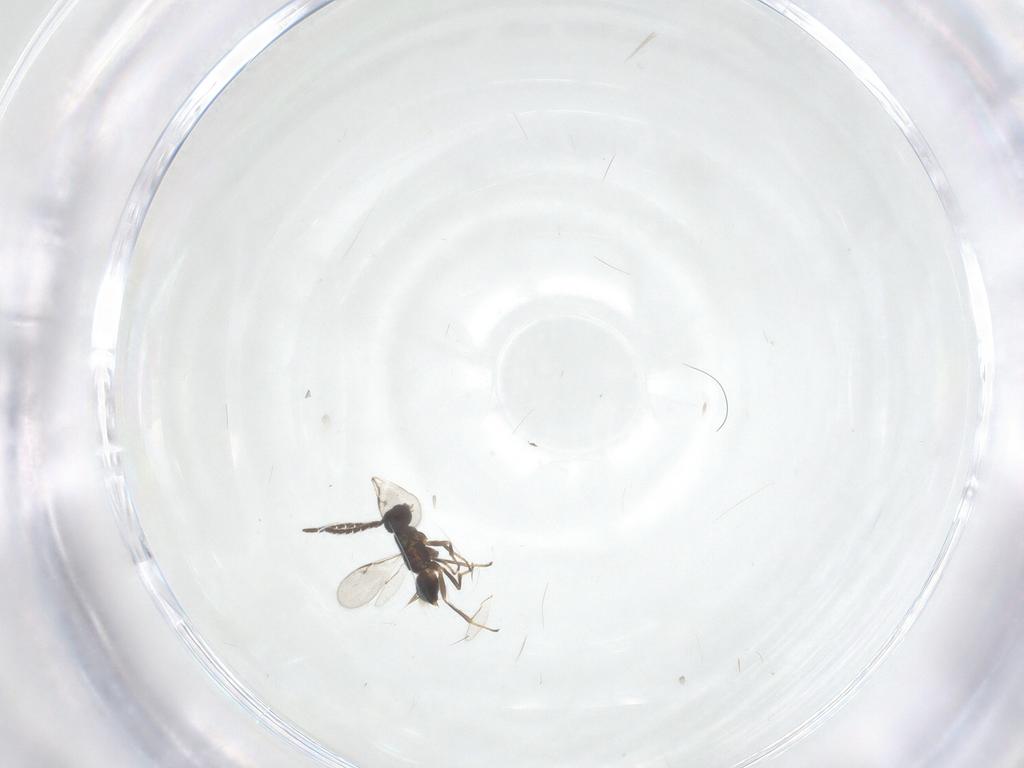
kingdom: Animalia
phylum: Arthropoda
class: Insecta
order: Hymenoptera
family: Encyrtidae
